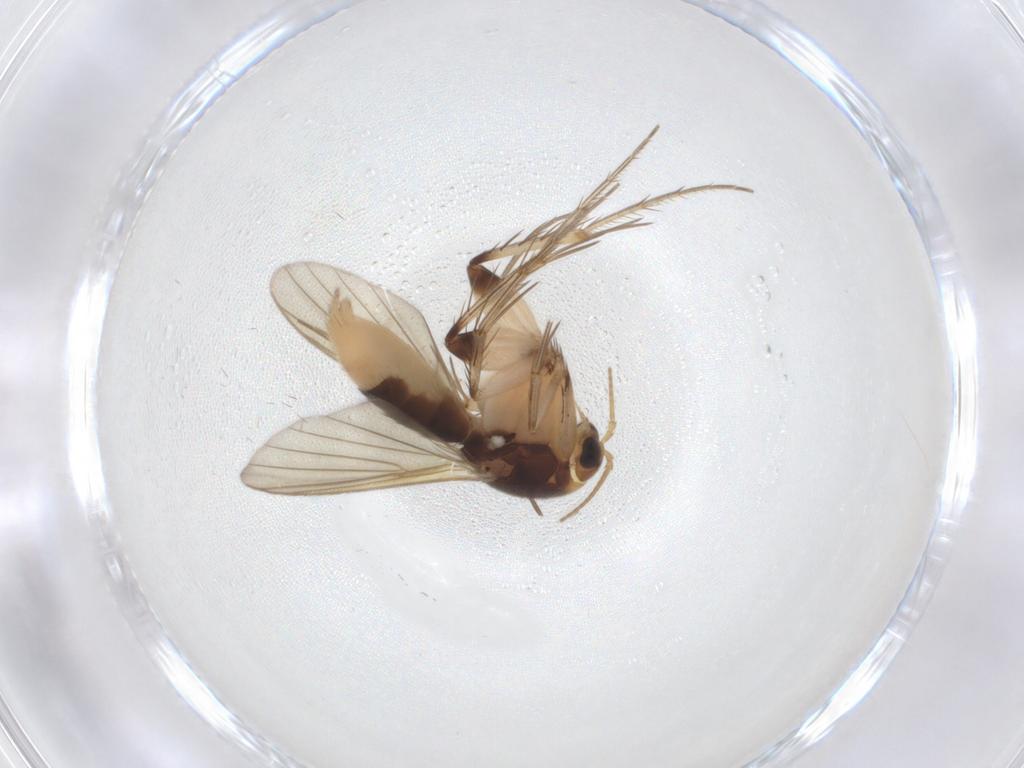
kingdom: Animalia
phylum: Arthropoda
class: Insecta
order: Diptera
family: Mycetophilidae
